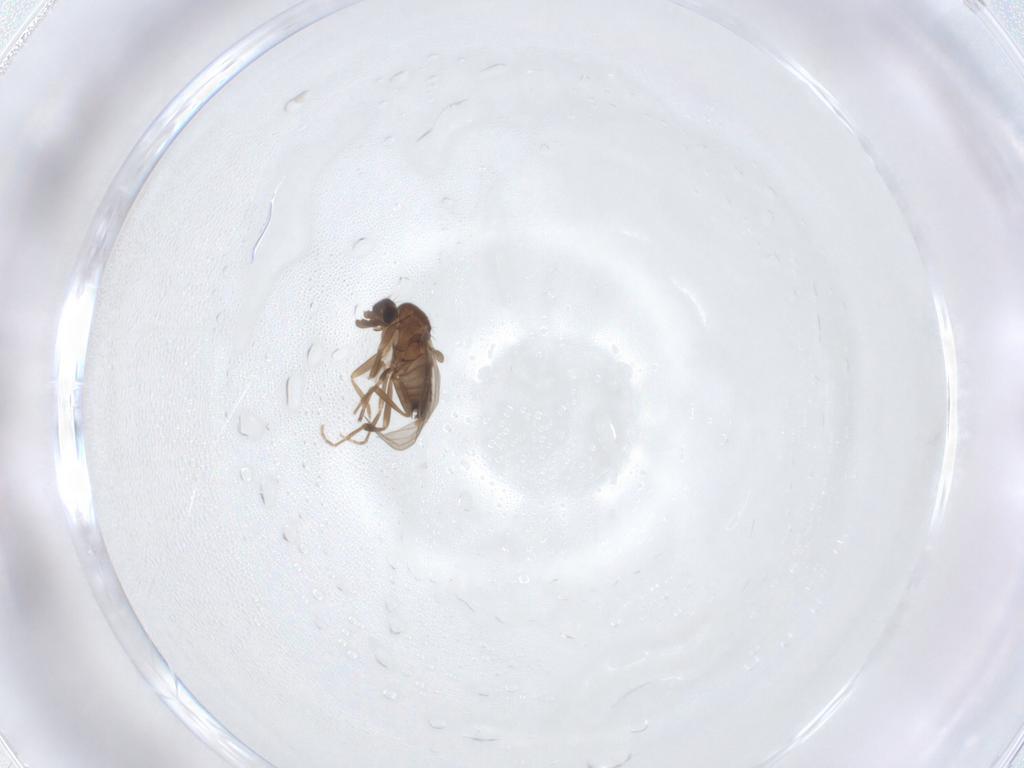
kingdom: Animalia
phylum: Arthropoda
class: Insecta
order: Diptera
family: Phoridae
